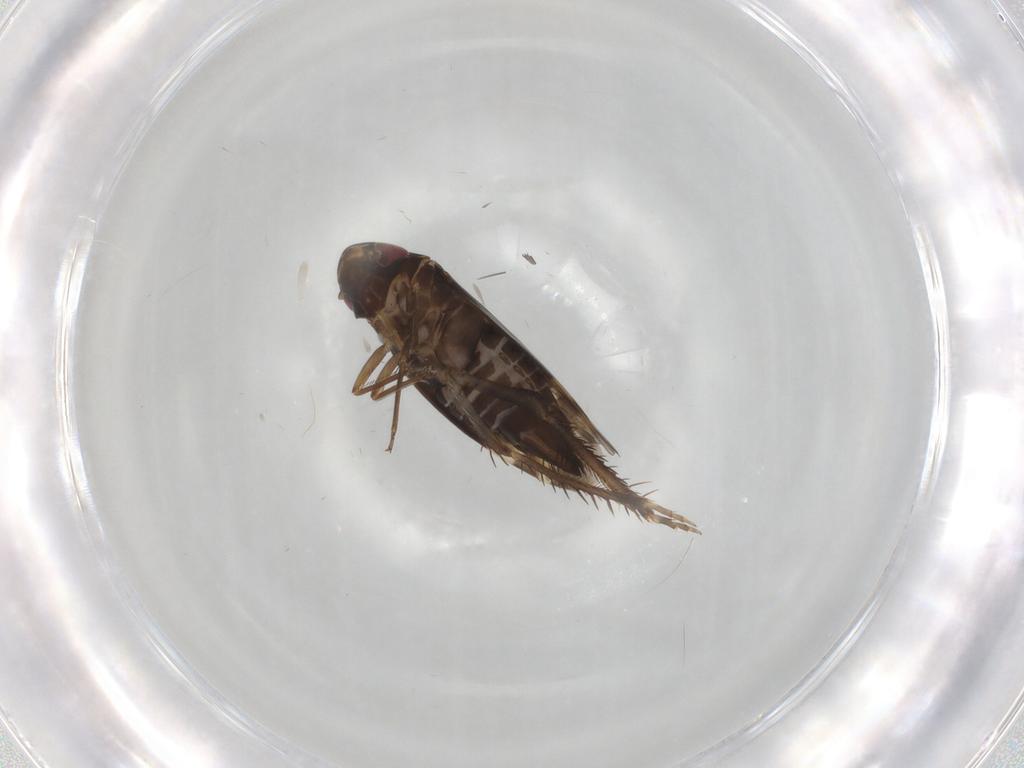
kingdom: Animalia
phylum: Arthropoda
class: Insecta
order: Hemiptera
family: Cicadellidae
